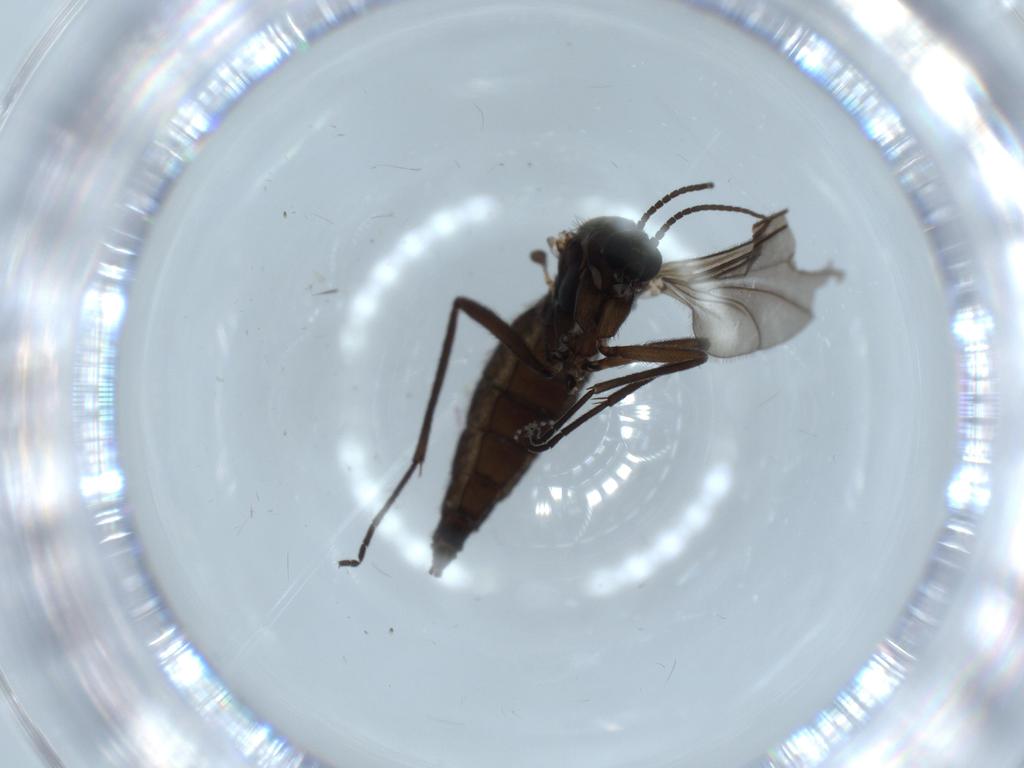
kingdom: Animalia
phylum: Arthropoda
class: Insecta
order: Diptera
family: Sciaridae
